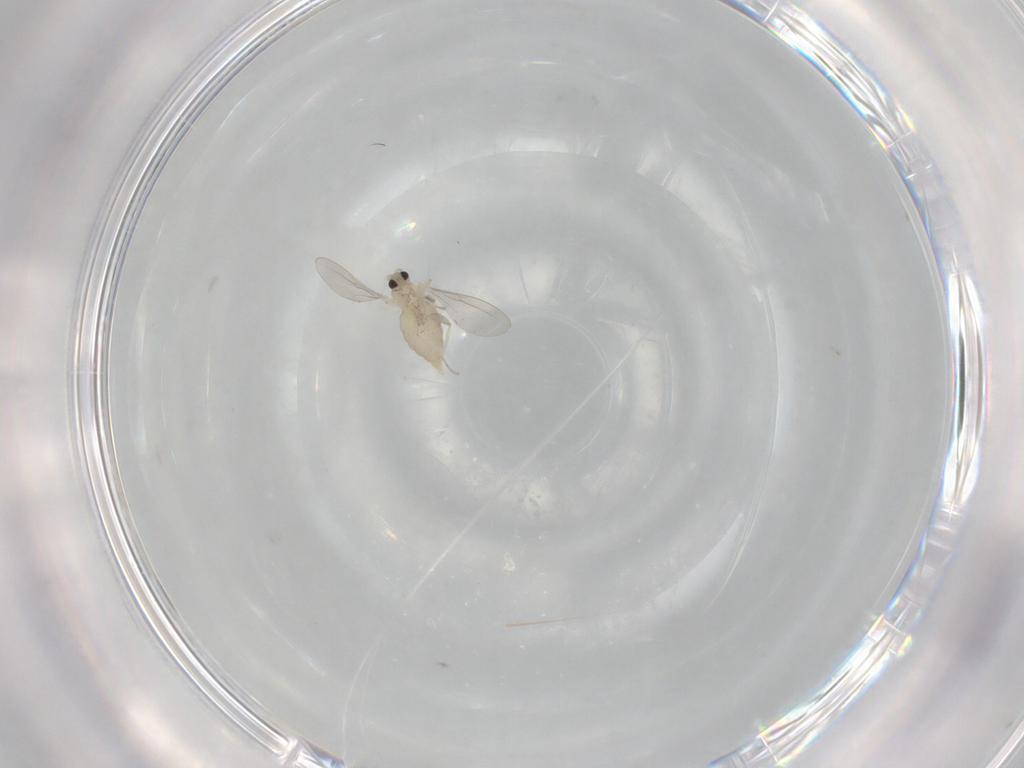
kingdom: Animalia
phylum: Arthropoda
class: Insecta
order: Diptera
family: Cecidomyiidae
